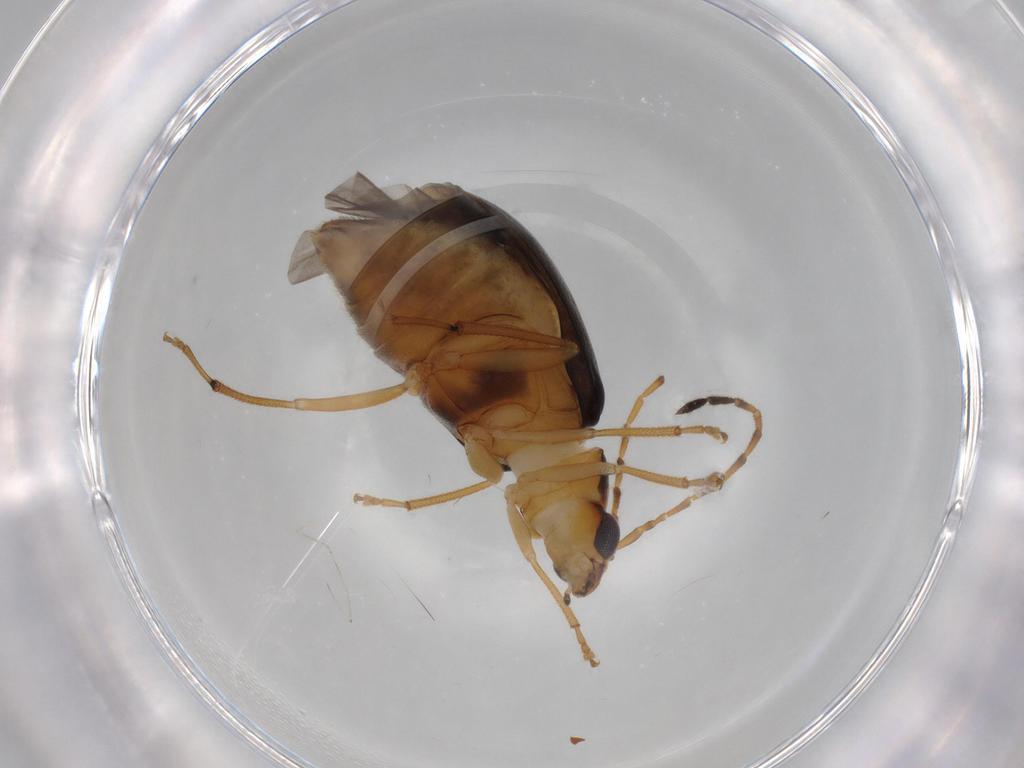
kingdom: Animalia
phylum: Arthropoda
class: Insecta
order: Coleoptera
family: Chrysomelidae
